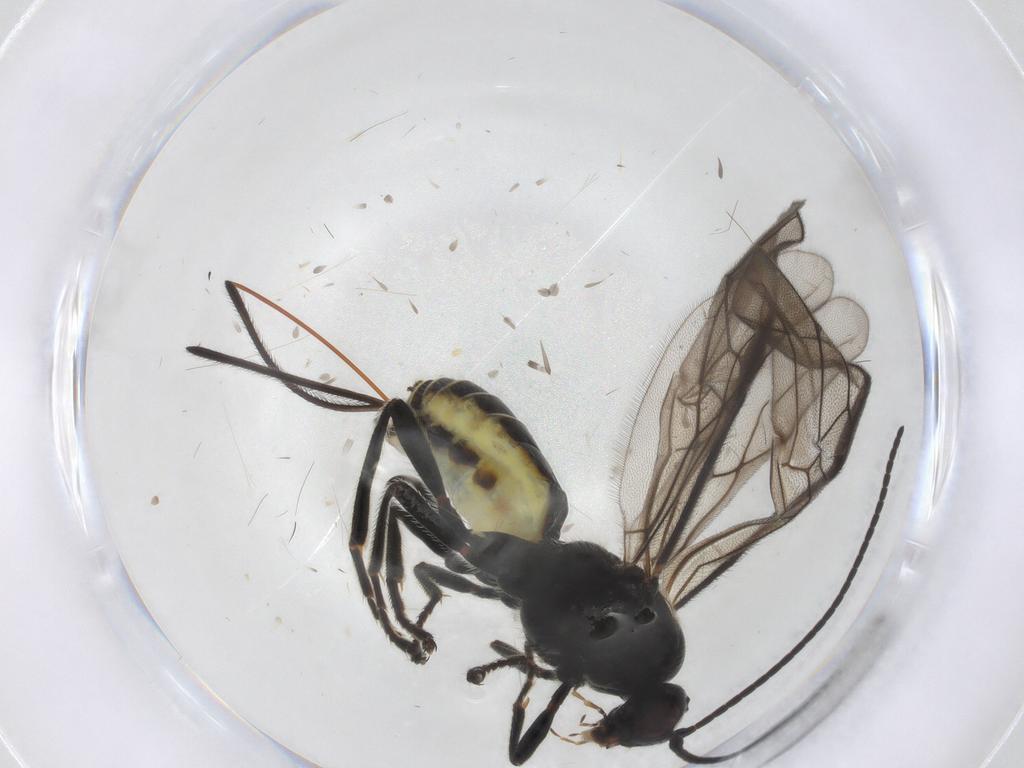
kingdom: Animalia
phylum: Arthropoda
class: Insecta
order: Hymenoptera
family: Braconidae
